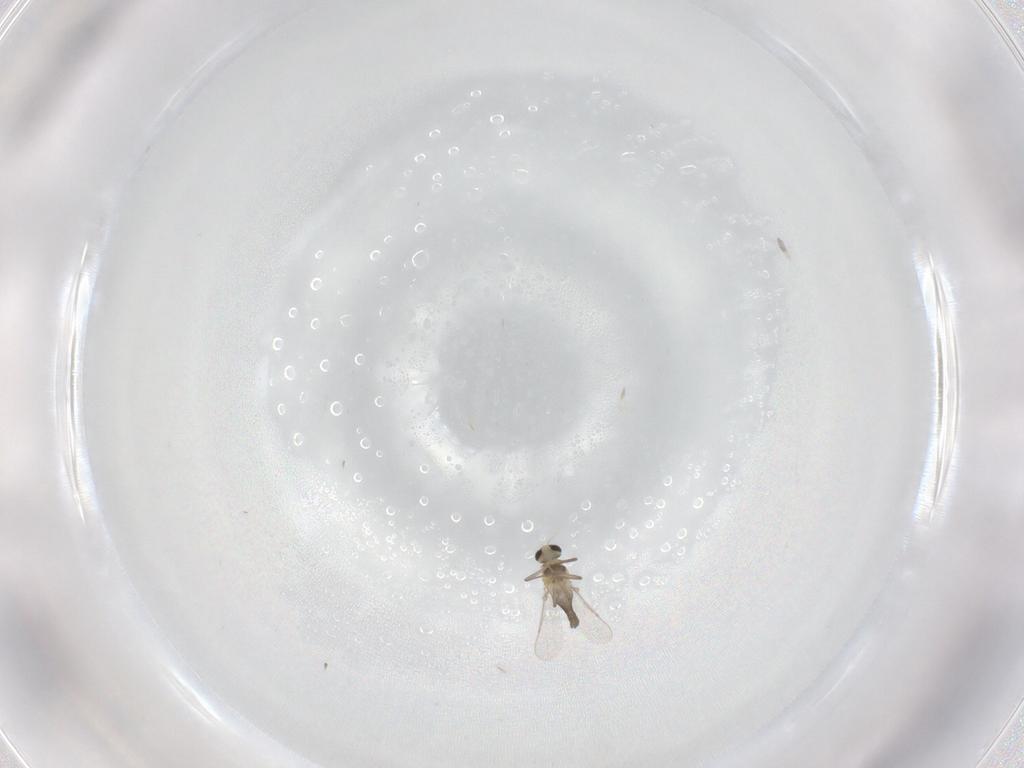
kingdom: Animalia
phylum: Arthropoda
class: Insecta
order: Diptera
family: Chironomidae
